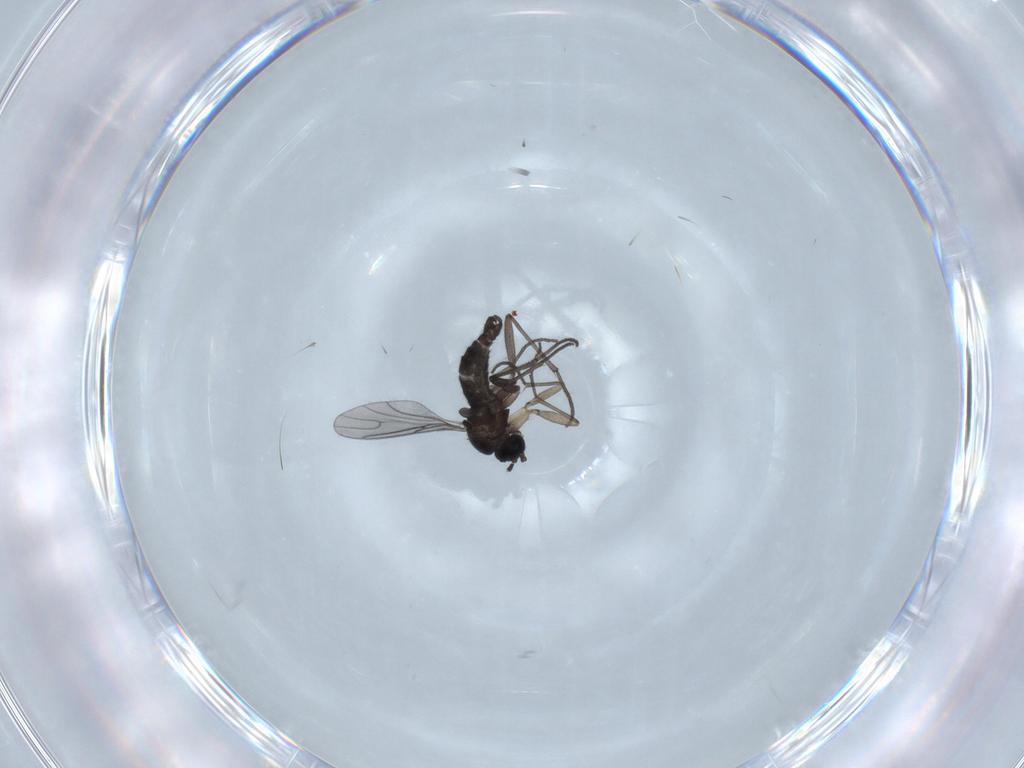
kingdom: Animalia
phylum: Arthropoda
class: Insecta
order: Diptera
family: Sciaridae
